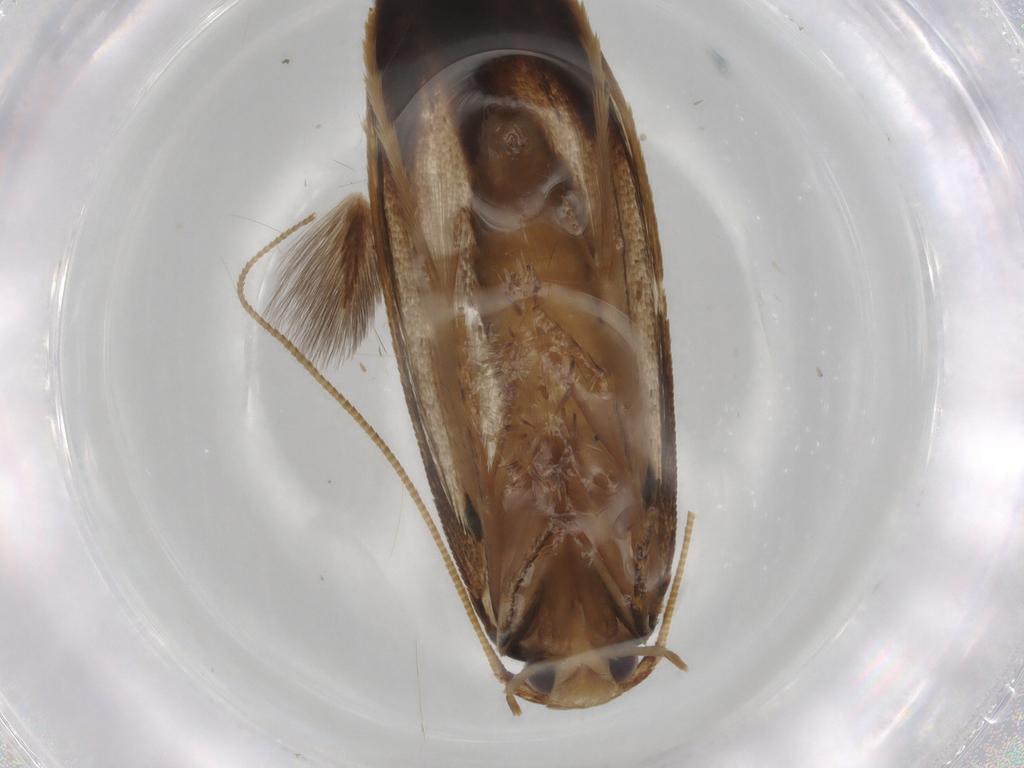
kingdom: Animalia
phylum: Arthropoda
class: Insecta
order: Lepidoptera
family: Tineidae
